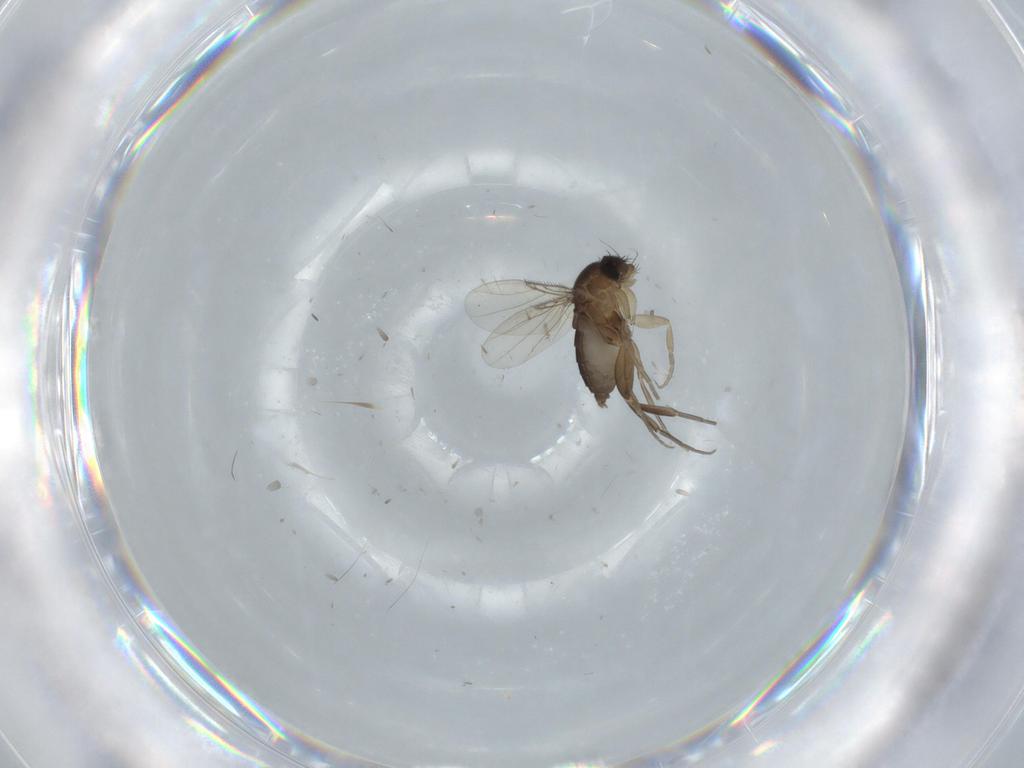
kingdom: Animalia
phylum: Arthropoda
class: Insecta
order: Diptera
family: Phoridae
